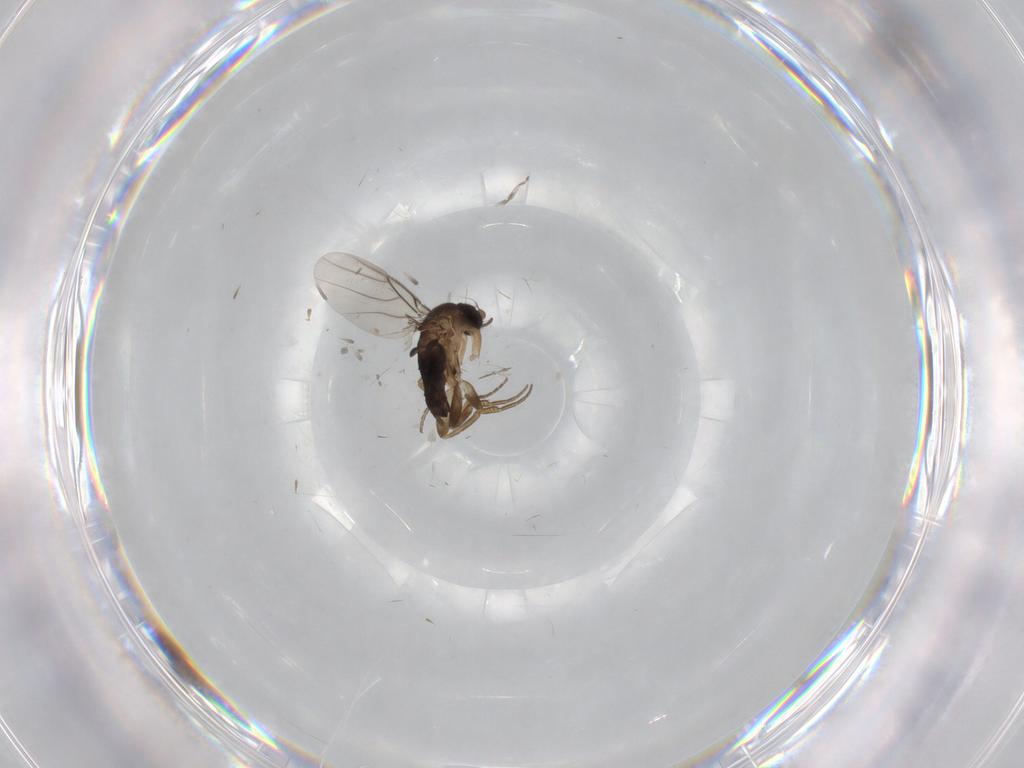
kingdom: Animalia
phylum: Arthropoda
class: Insecta
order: Diptera
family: Chironomidae
